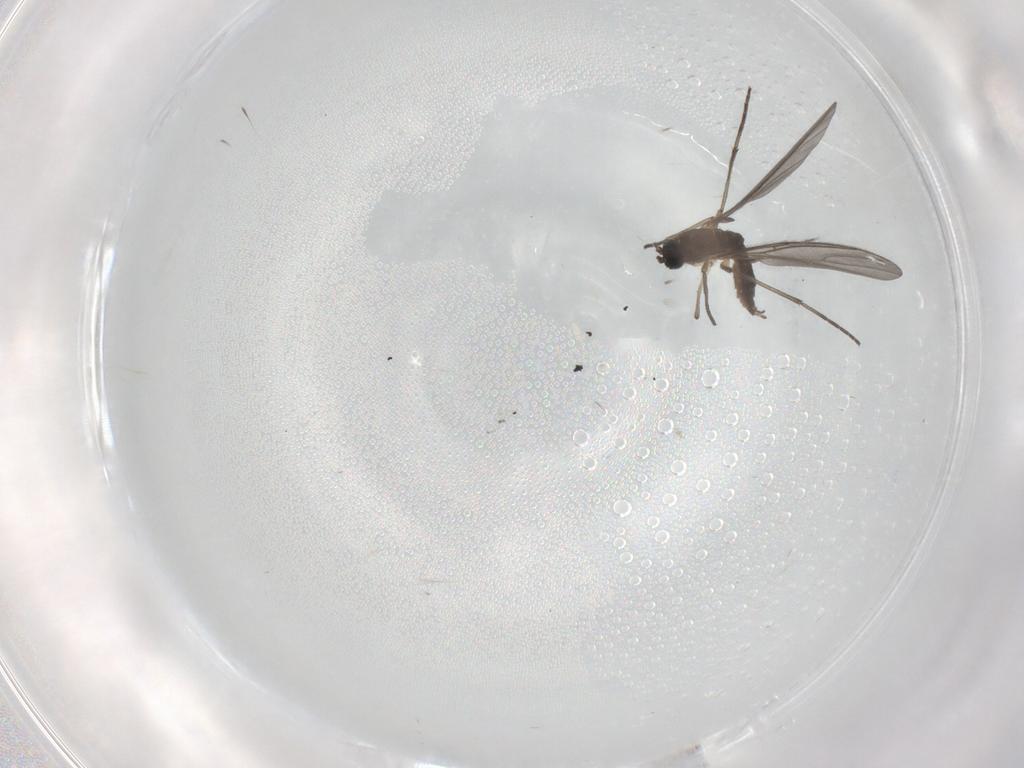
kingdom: Animalia
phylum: Arthropoda
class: Insecta
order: Diptera
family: Sciaridae
